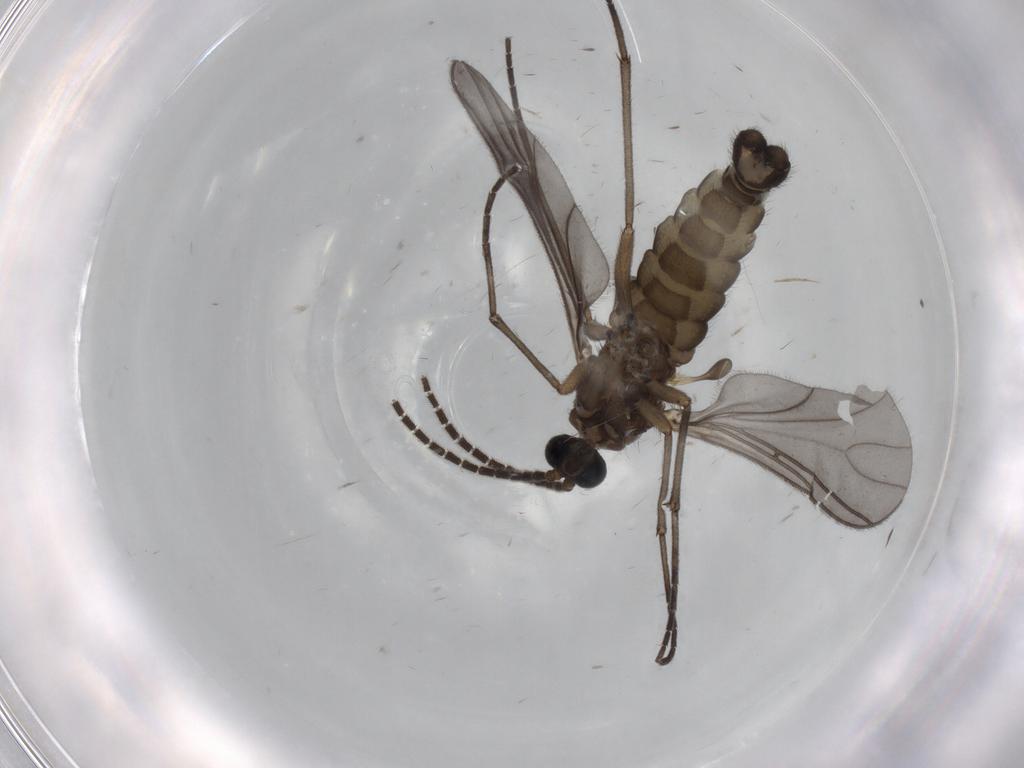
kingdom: Animalia
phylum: Arthropoda
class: Insecta
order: Diptera
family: Sciaridae
